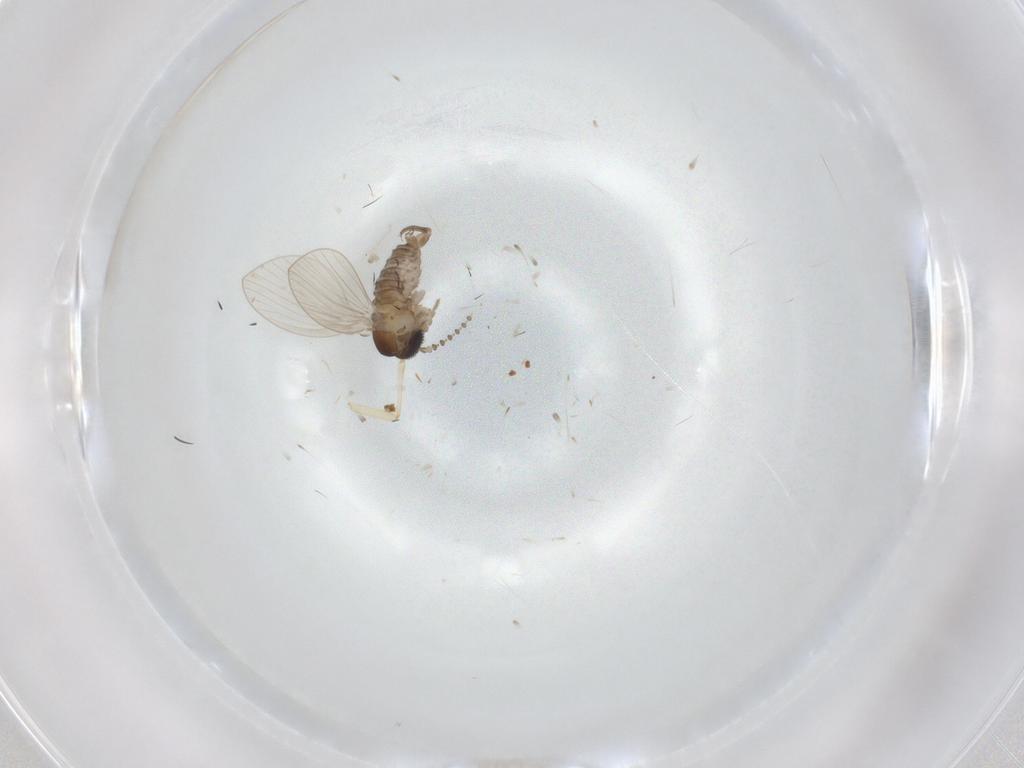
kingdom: Animalia
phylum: Arthropoda
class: Insecta
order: Diptera
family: Psychodidae
